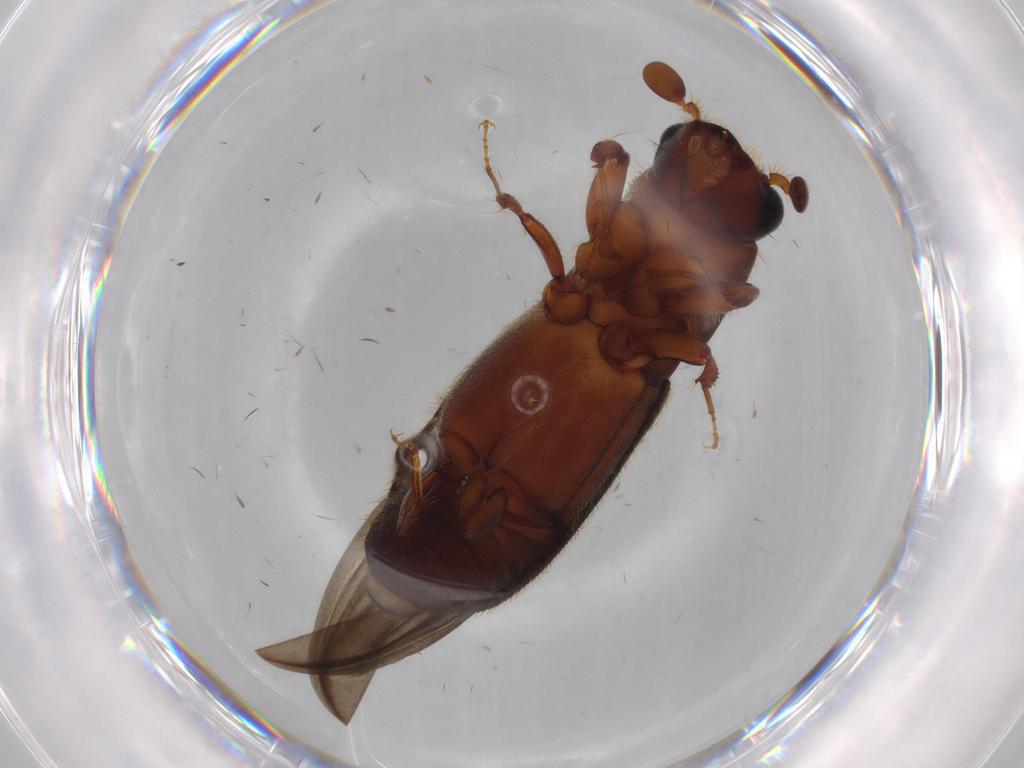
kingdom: Animalia
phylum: Arthropoda
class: Insecta
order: Coleoptera
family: Curculionidae
